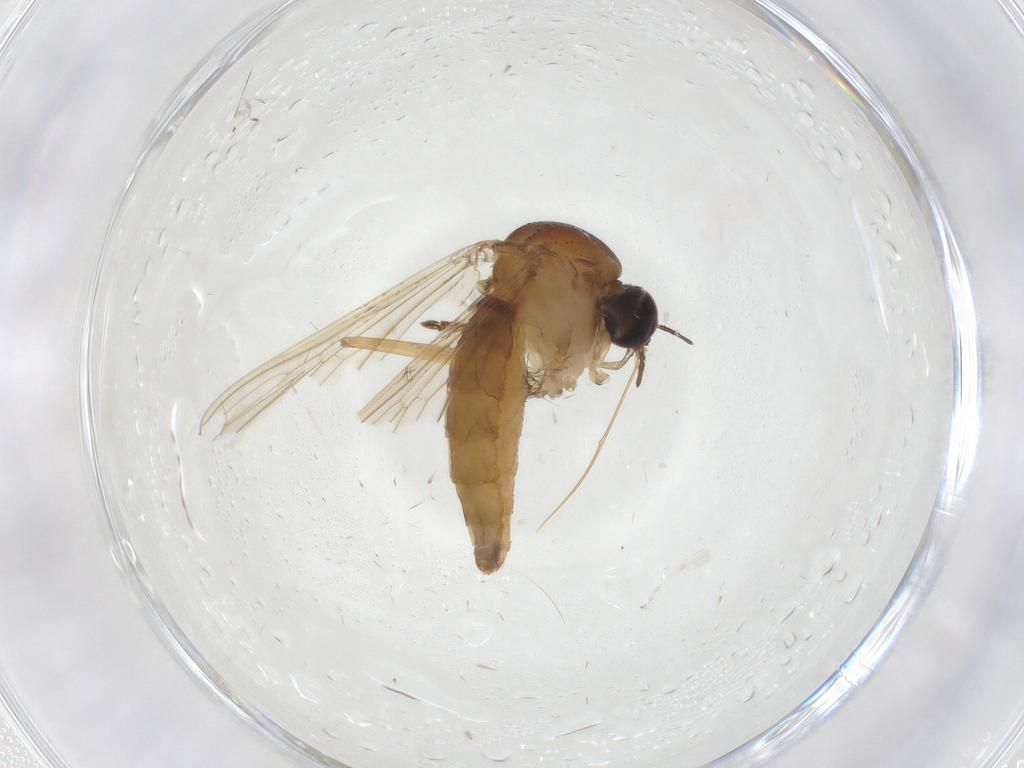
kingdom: Animalia
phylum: Arthropoda
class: Insecta
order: Diptera
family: Culicidae
